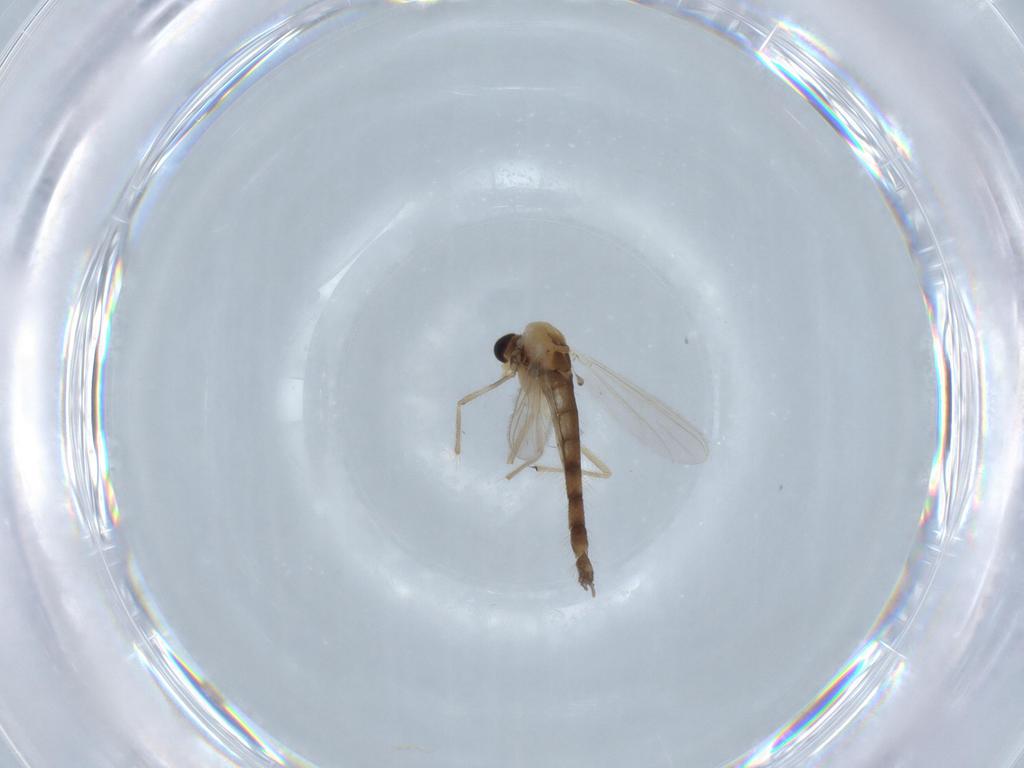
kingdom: Animalia
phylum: Arthropoda
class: Insecta
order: Diptera
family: Chironomidae
